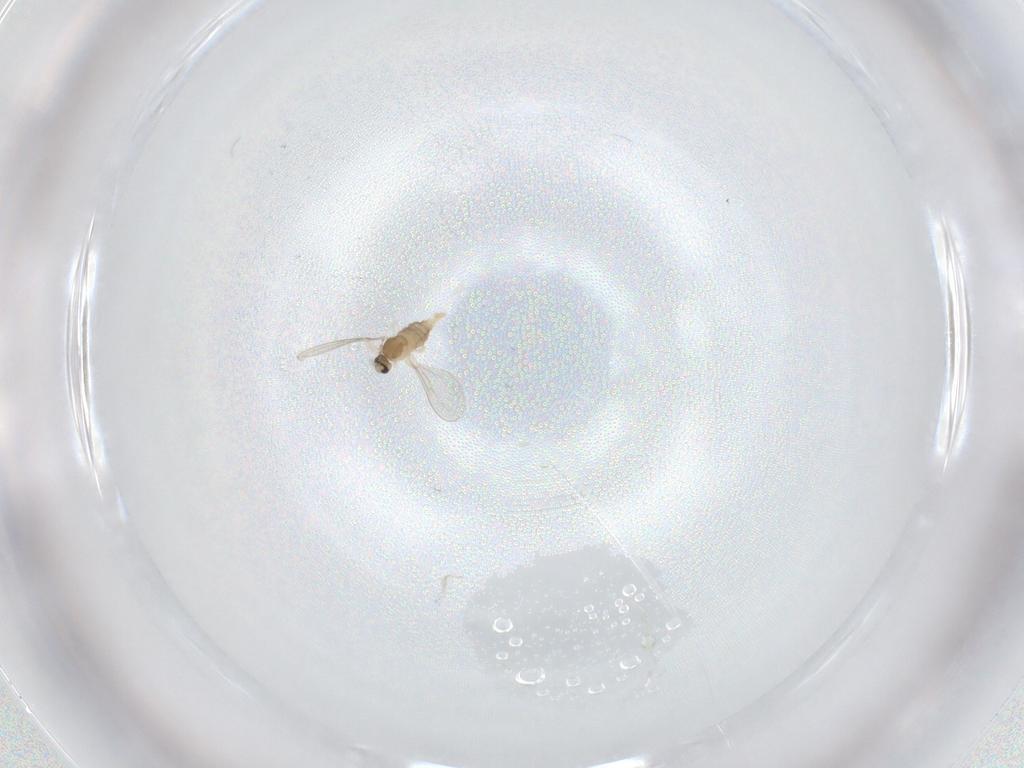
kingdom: Animalia
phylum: Arthropoda
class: Insecta
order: Diptera
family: Cecidomyiidae
